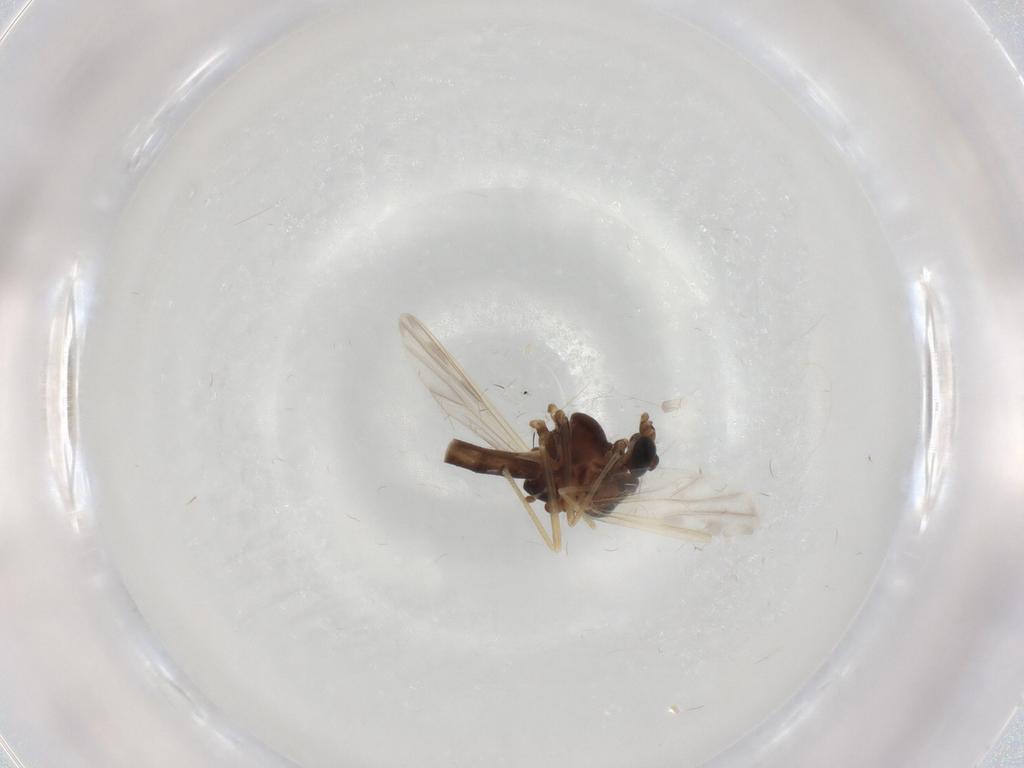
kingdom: Animalia
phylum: Arthropoda
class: Insecta
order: Diptera
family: Chironomidae
